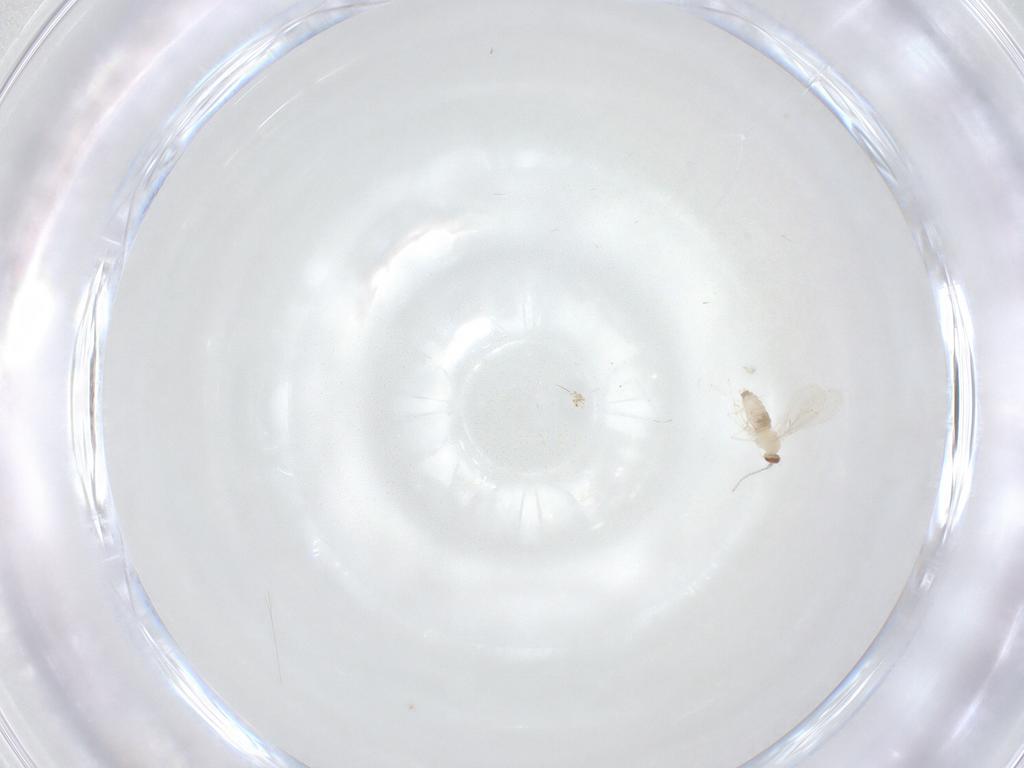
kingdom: Animalia
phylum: Arthropoda
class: Insecta
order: Diptera
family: Cecidomyiidae
